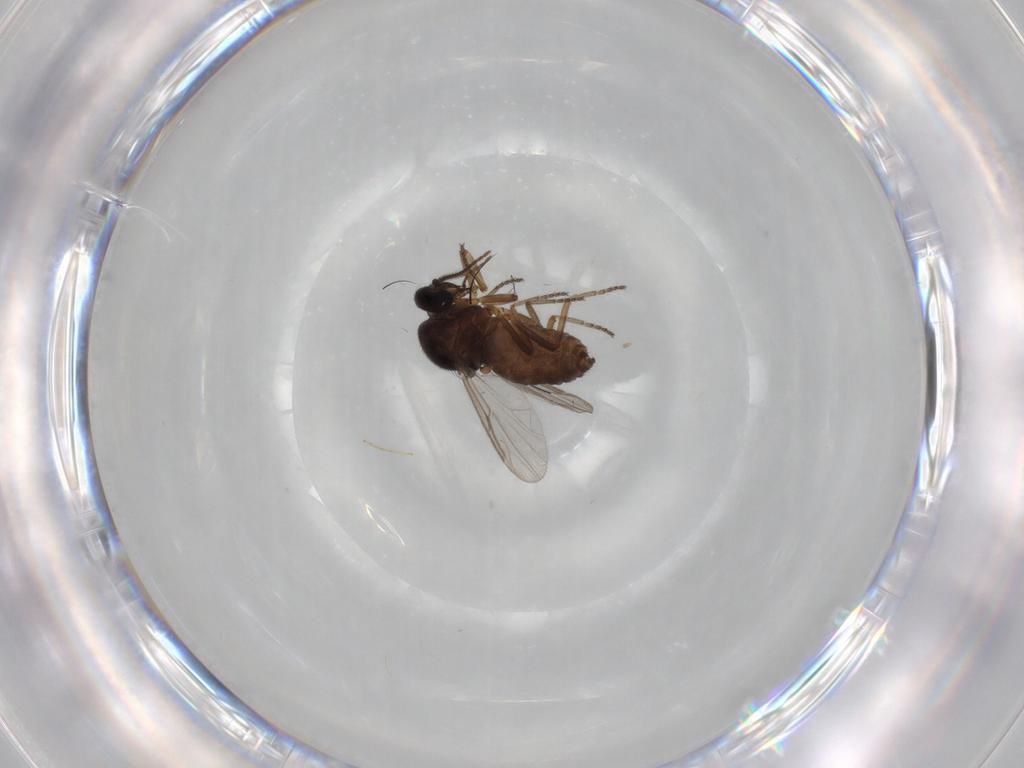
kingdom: Animalia
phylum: Arthropoda
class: Insecta
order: Diptera
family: Ceratopogonidae
